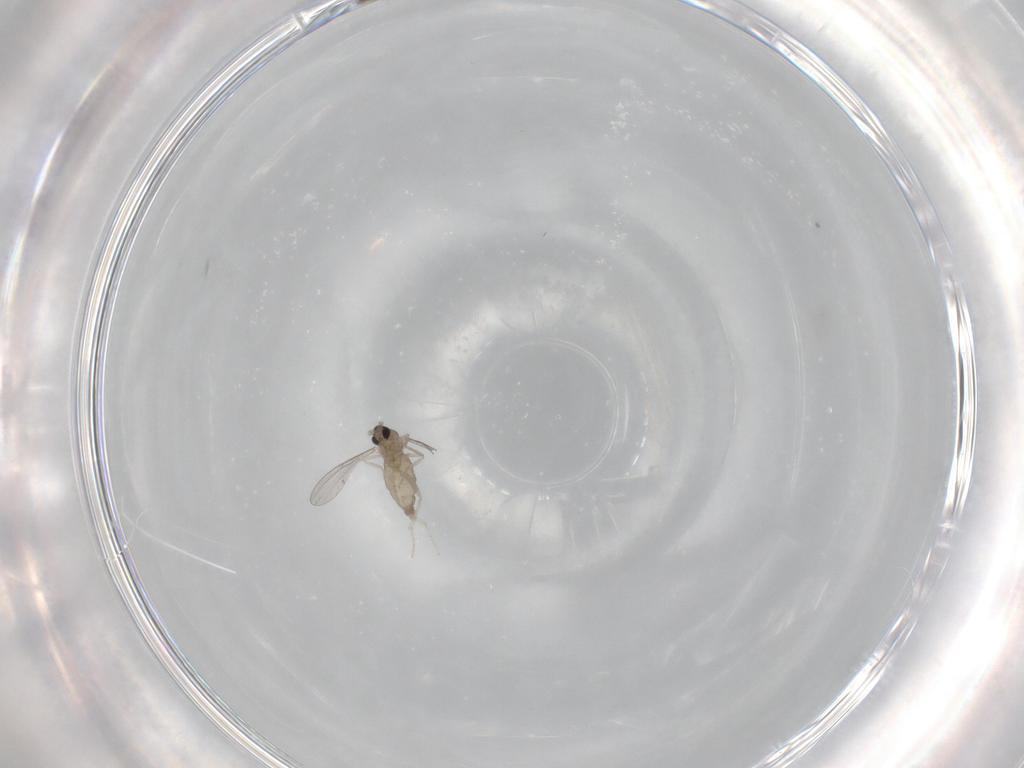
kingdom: Animalia
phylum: Arthropoda
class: Insecta
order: Diptera
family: Cecidomyiidae
